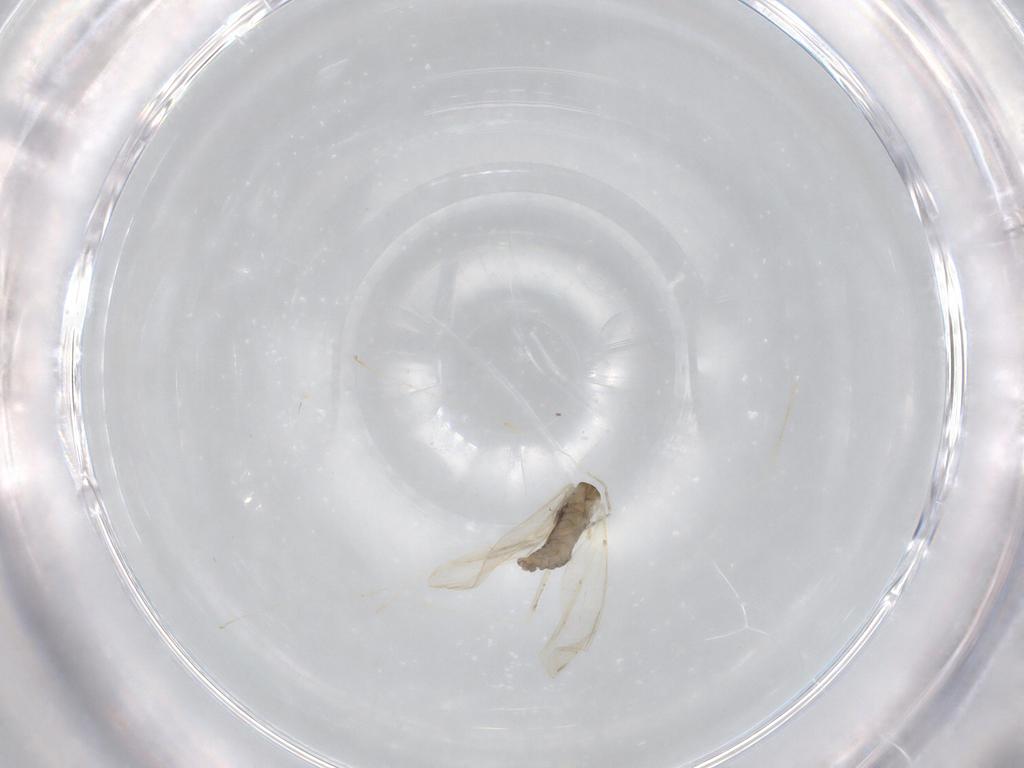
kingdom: Animalia
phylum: Arthropoda
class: Insecta
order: Diptera
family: Cecidomyiidae
